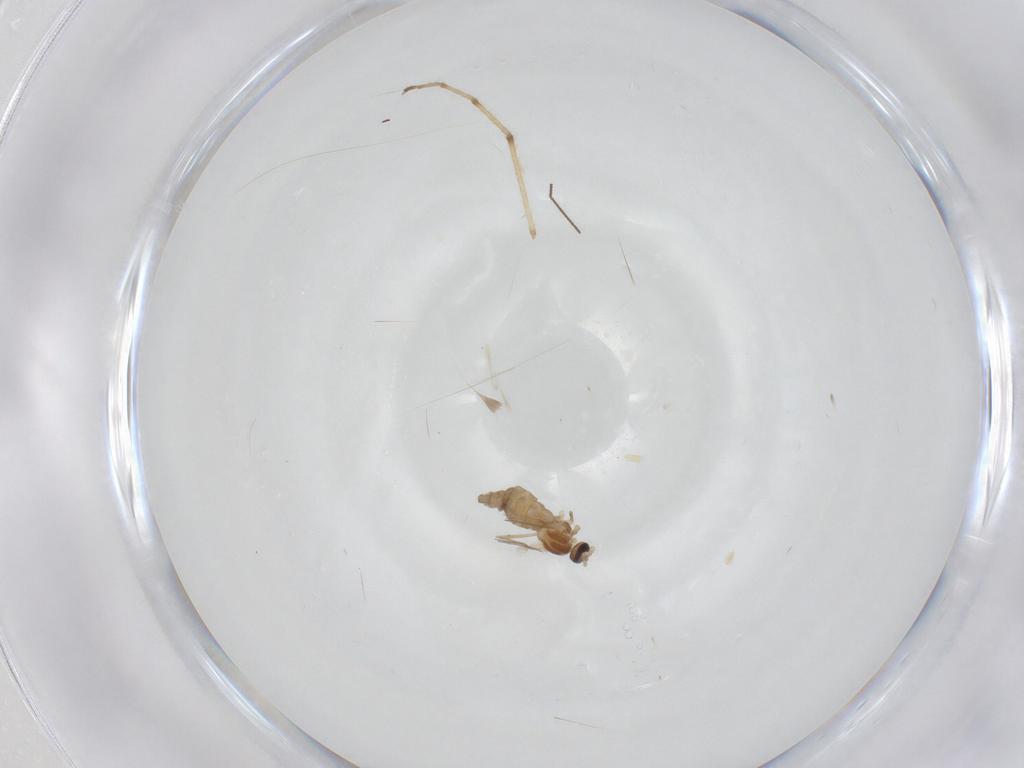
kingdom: Animalia
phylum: Arthropoda
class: Insecta
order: Diptera
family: Cecidomyiidae
